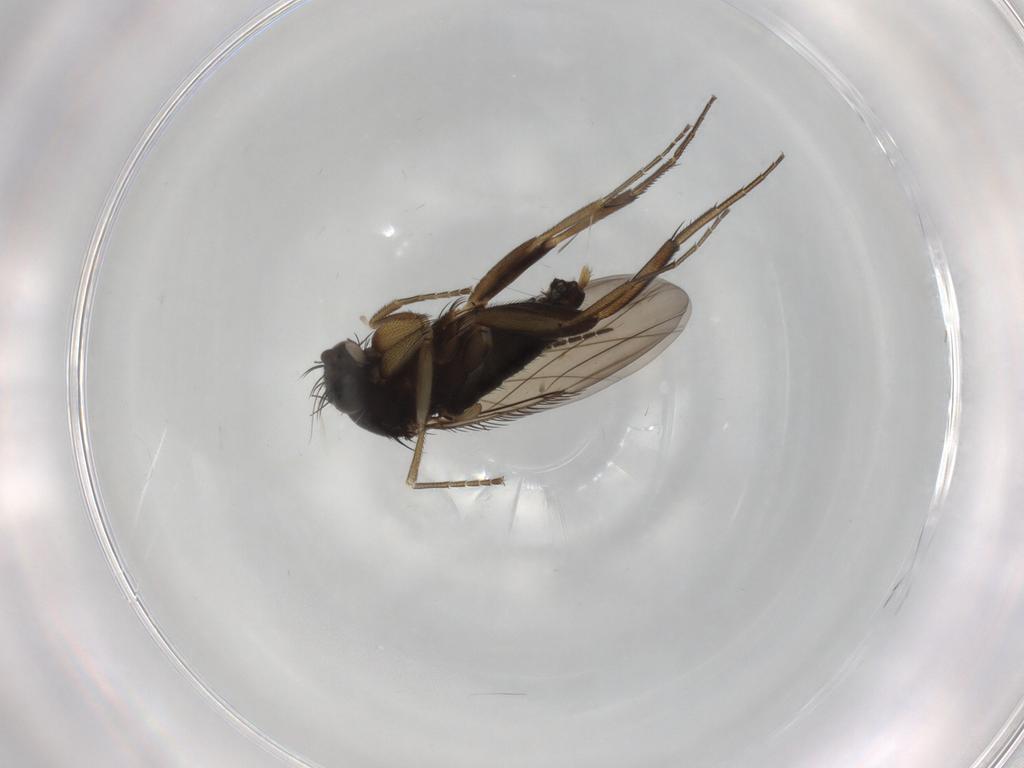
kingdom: Animalia
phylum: Arthropoda
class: Insecta
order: Diptera
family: Phoridae
